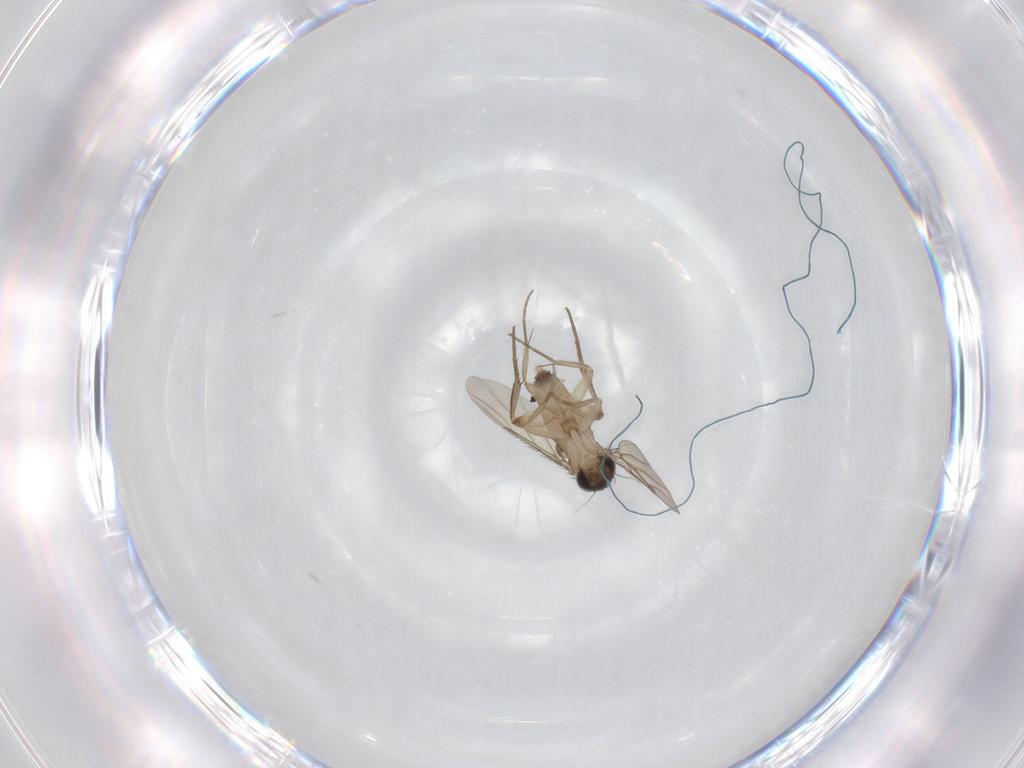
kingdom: Animalia
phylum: Arthropoda
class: Insecta
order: Diptera
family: Phoridae
